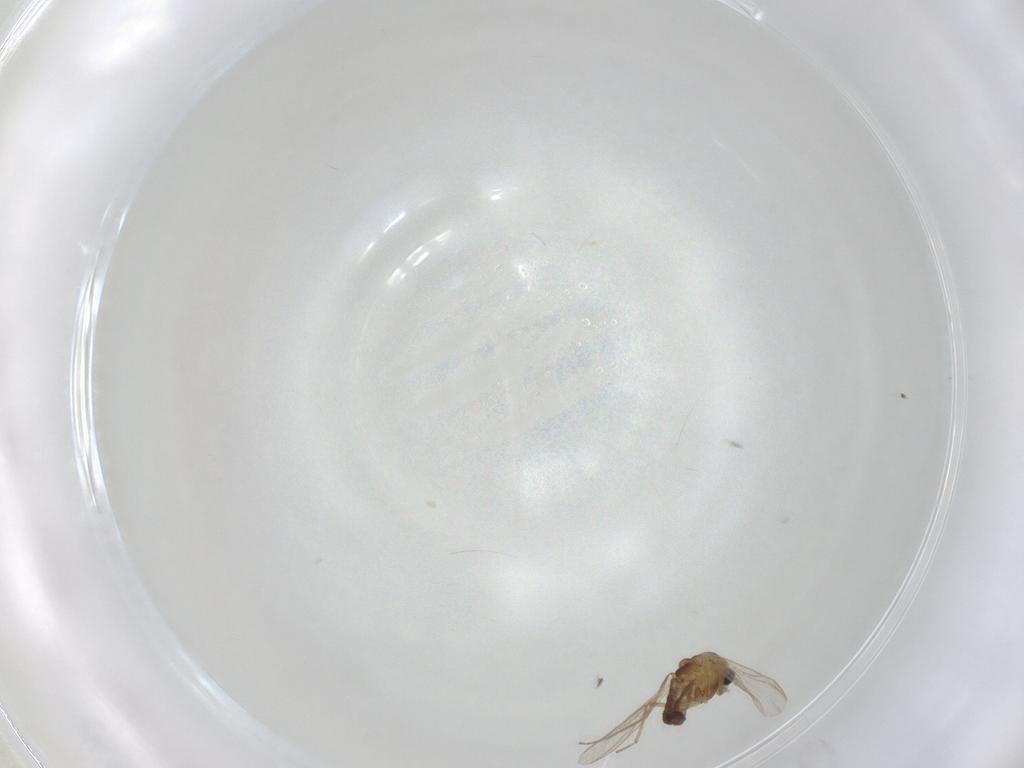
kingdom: Animalia
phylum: Arthropoda
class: Insecta
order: Diptera
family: Chironomidae
